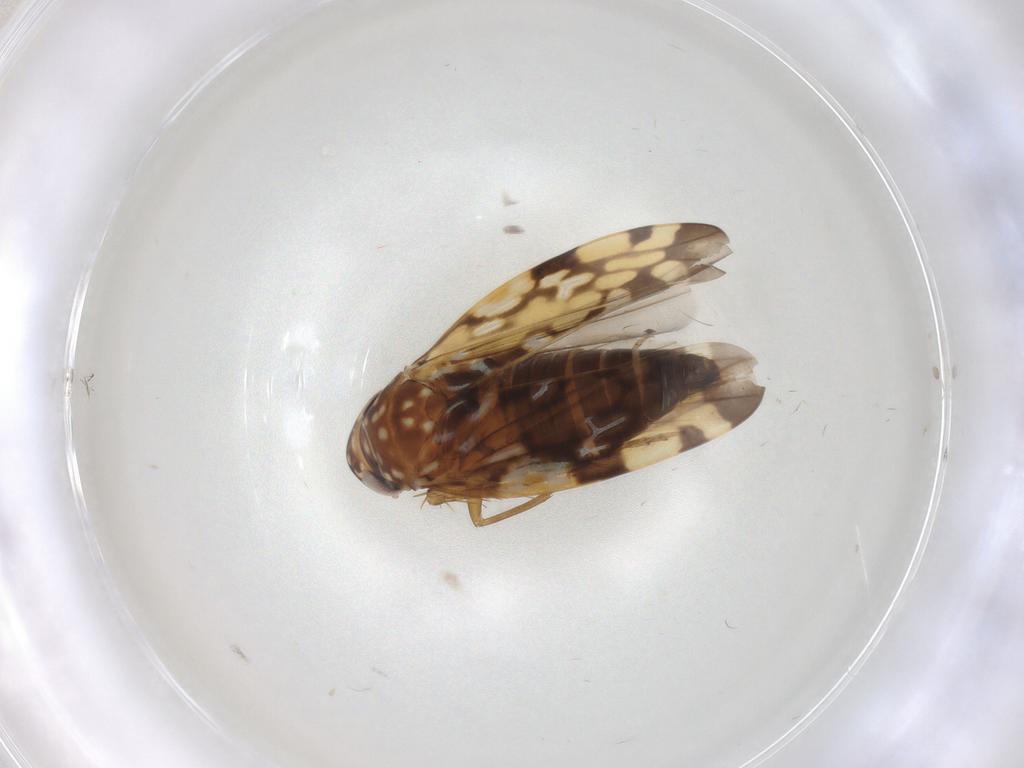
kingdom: Animalia
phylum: Arthropoda
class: Insecta
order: Hemiptera
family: Cicadellidae
